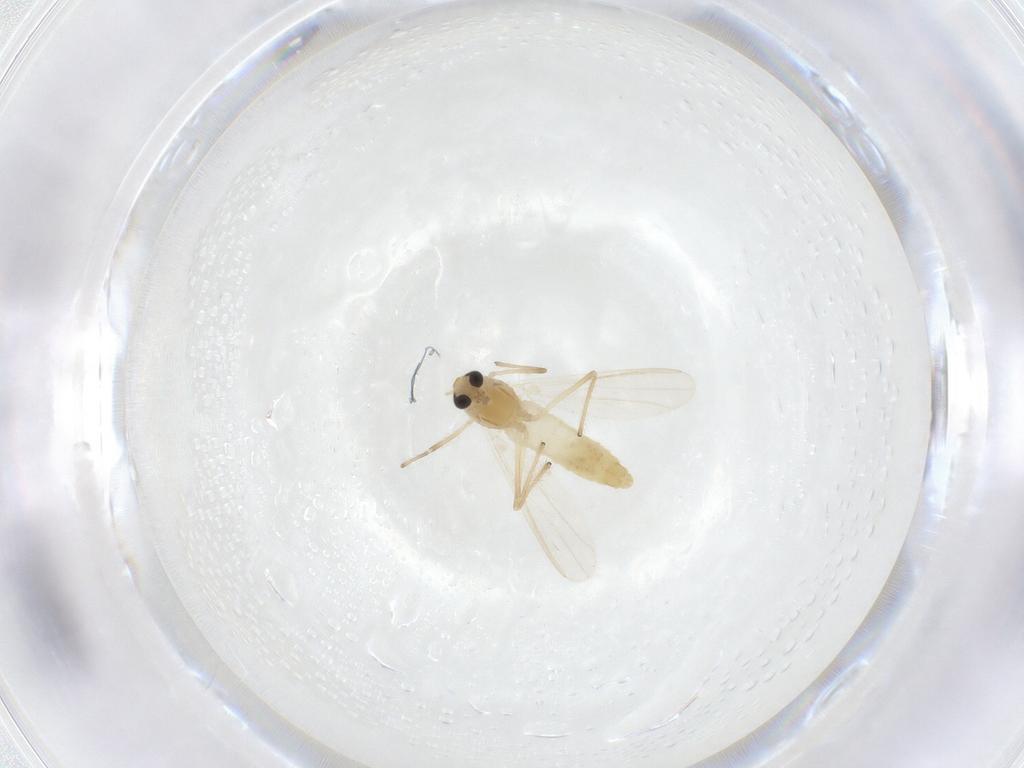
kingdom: Animalia
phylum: Arthropoda
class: Insecta
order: Diptera
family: Chironomidae
